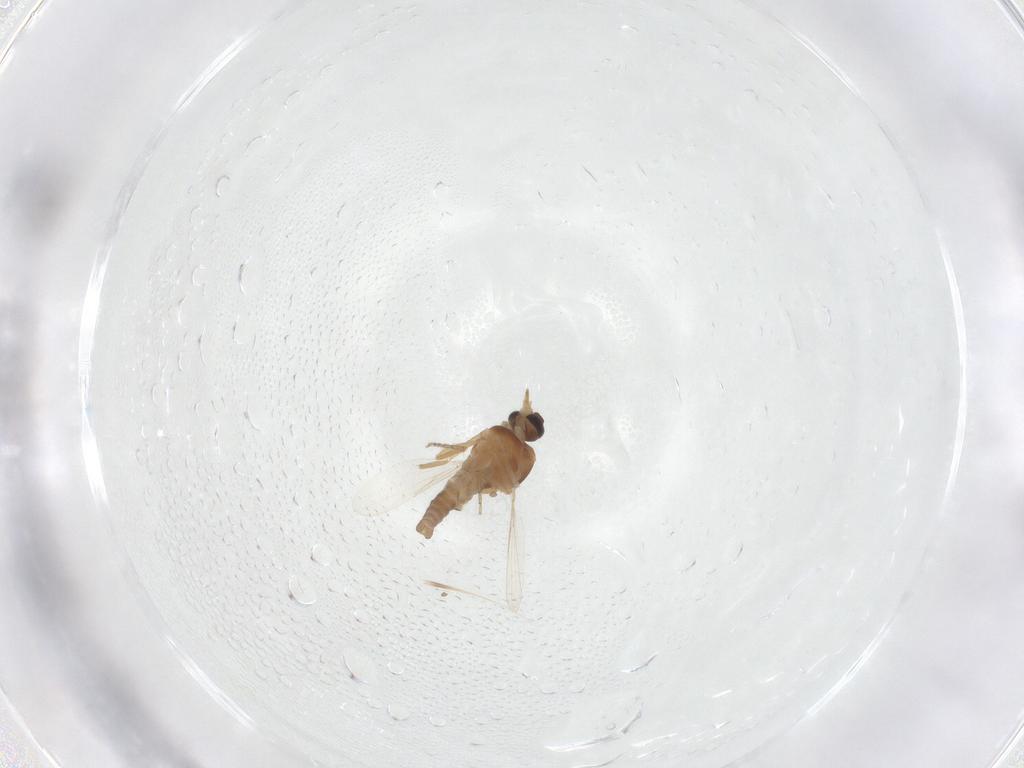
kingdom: Animalia
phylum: Arthropoda
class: Insecta
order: Diptera
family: Ceratopogonidae
